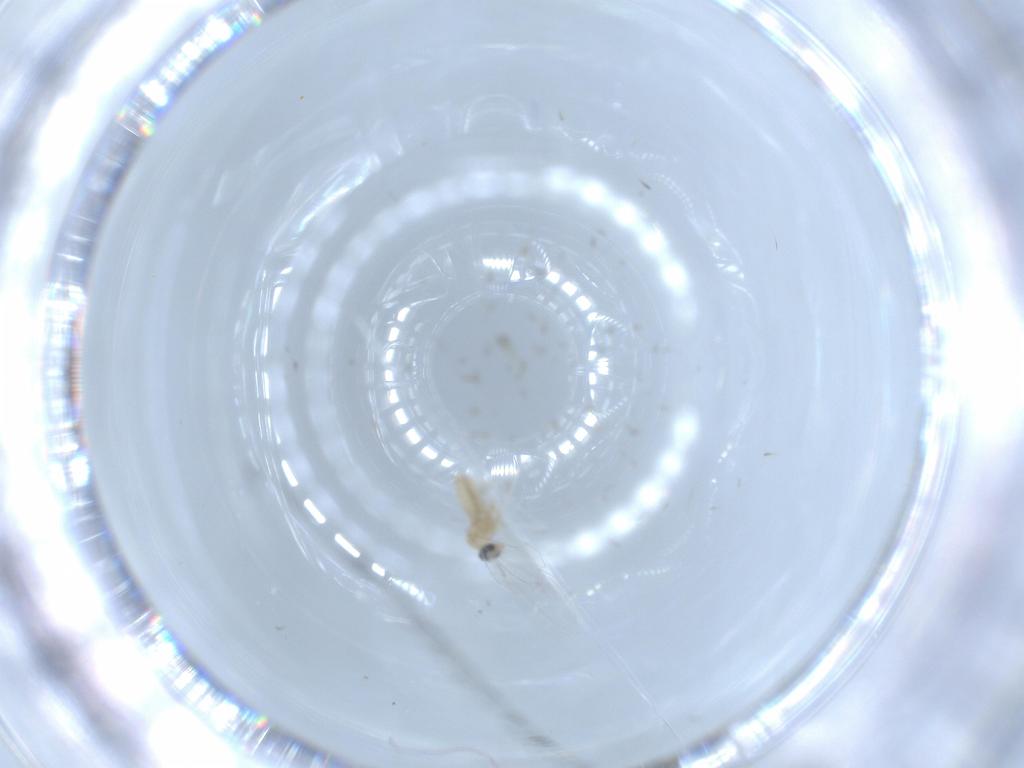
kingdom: Animalia
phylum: Arthropoda
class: Insecta
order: Diptera
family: Cecidomyiidae
